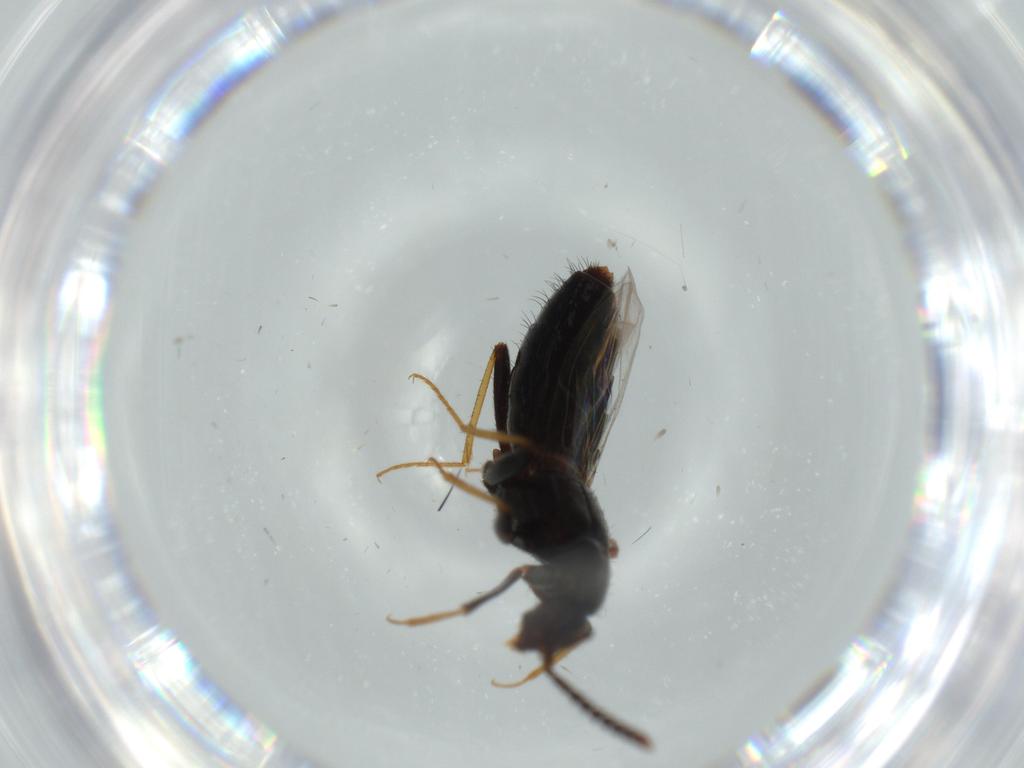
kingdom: Animalia
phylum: Arthropoda
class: Insecta
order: Coleoptera
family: Staphylinidae
